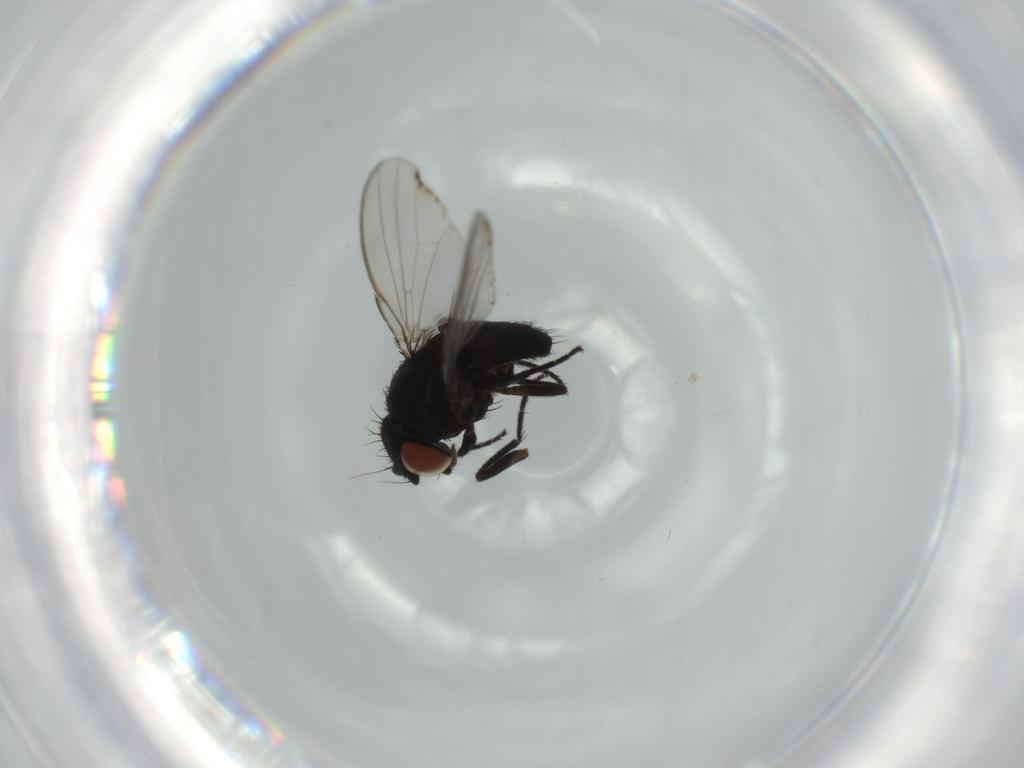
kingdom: Animalia
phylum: Arthropoda
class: Insecta
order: Diptera
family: Milichiidae
